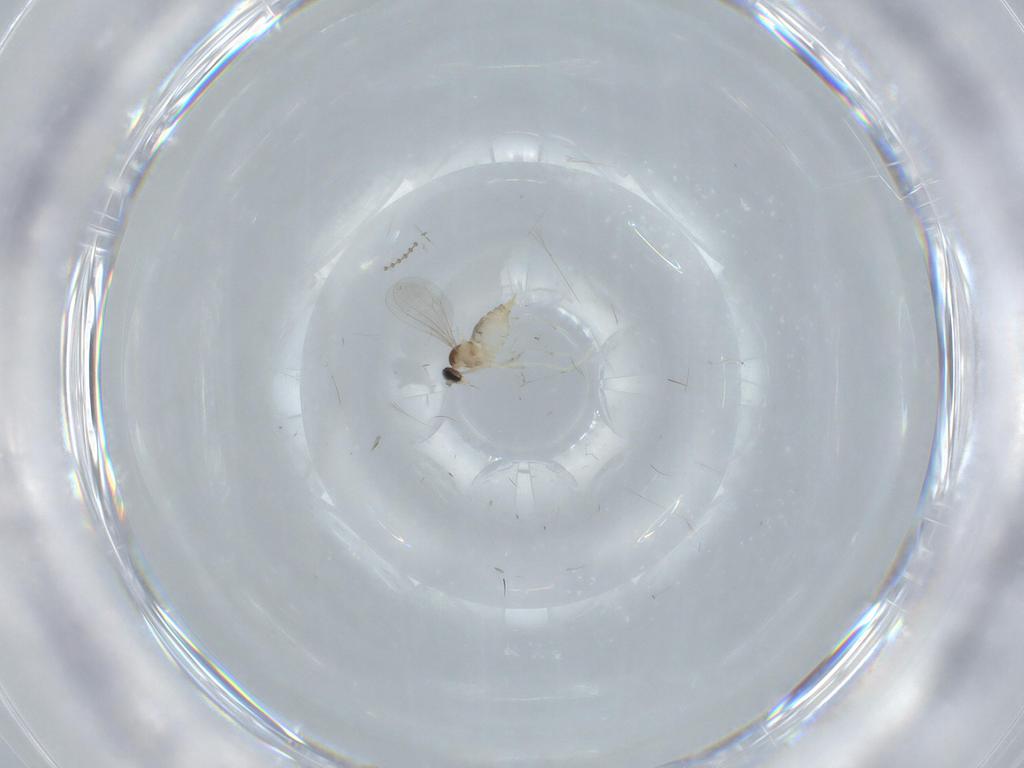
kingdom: Animalia
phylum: Arthropoda
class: Insecta
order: Diptera
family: Cecidomyiidae
